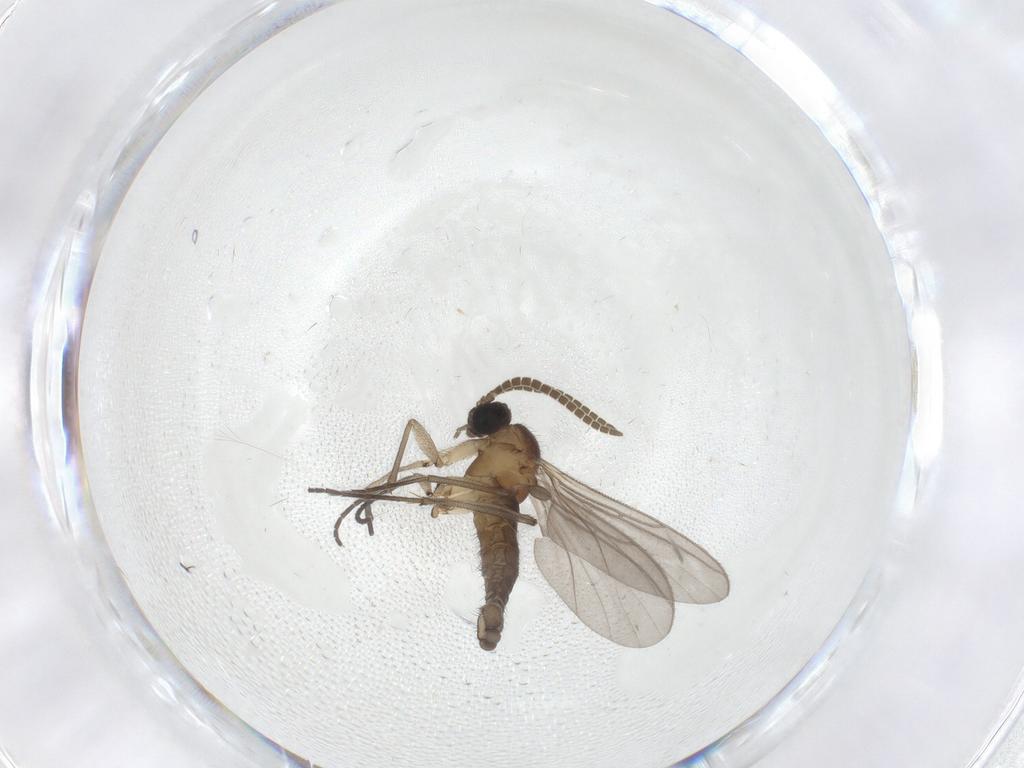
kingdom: Animalia
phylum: Arthropoda
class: Insecta
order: Diptera
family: Cecidomyiidae
